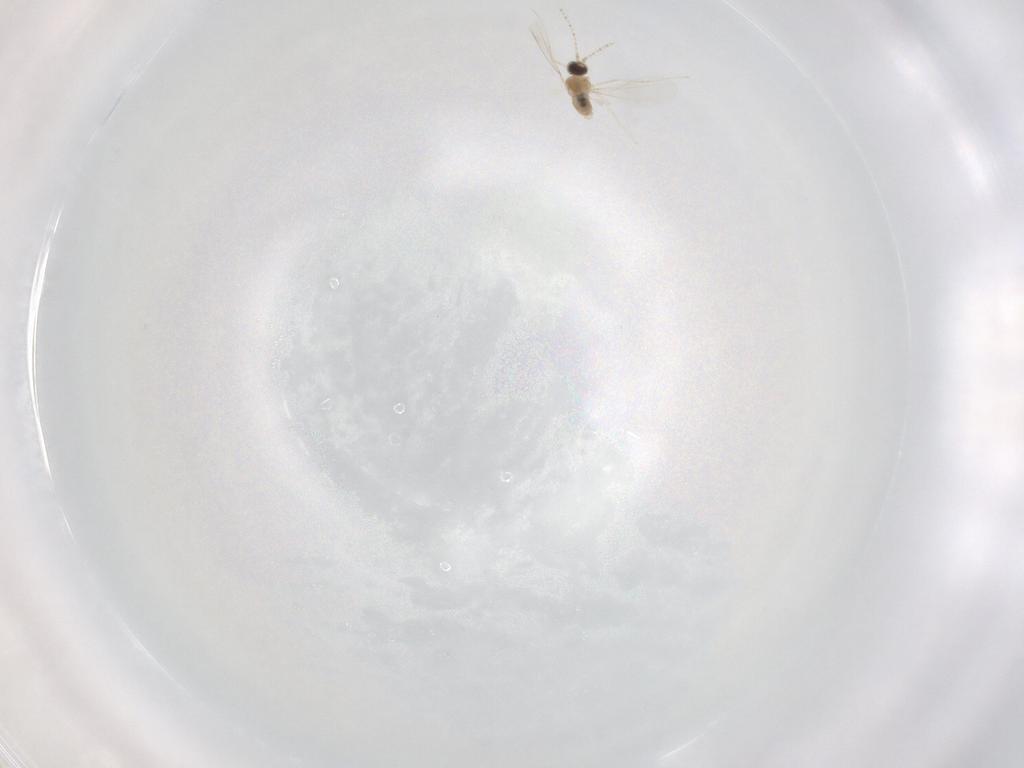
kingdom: Animalia
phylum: Arthropoda
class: Insecta
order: Diptera
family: Cecidomyiidae
